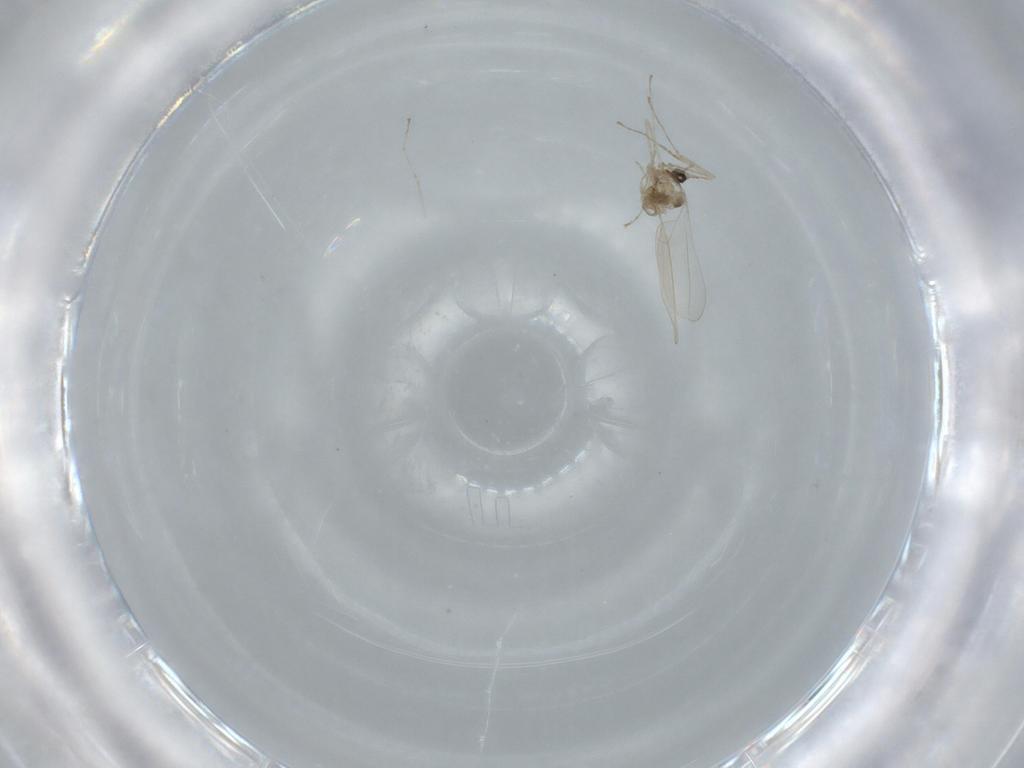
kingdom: Animalia
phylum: Arthropoda
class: Insecta
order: Diptera
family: Cecidomyiidae
